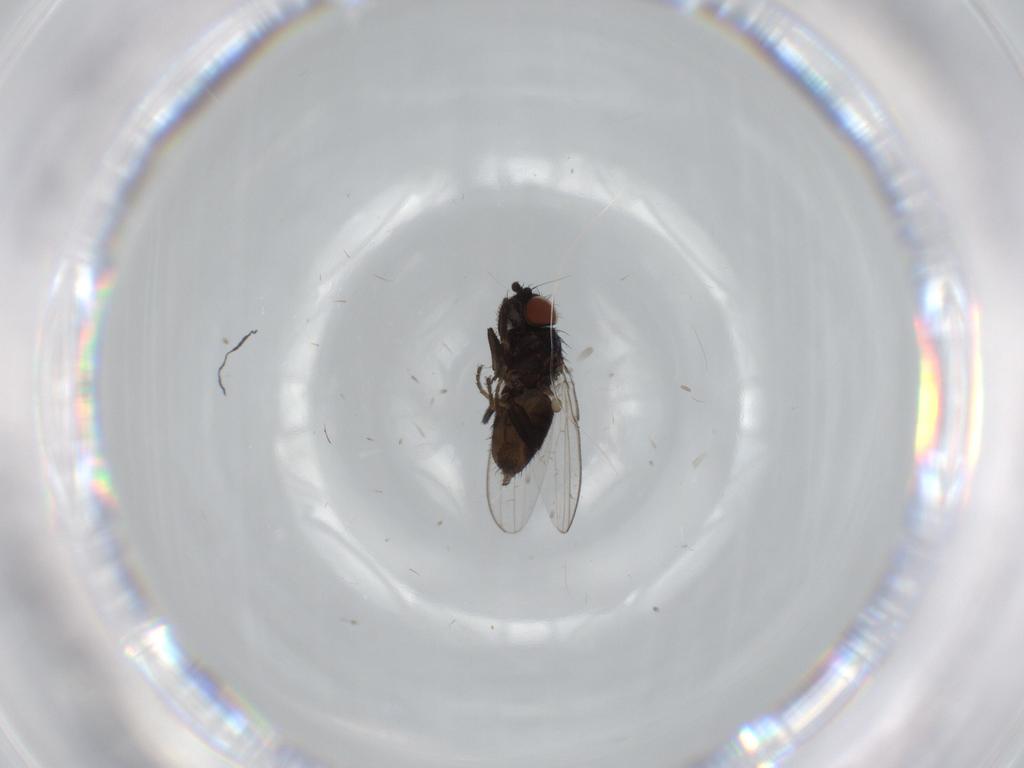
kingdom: Animalia
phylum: Arthropoda
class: Insecta
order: Diptera
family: Milichiidae
